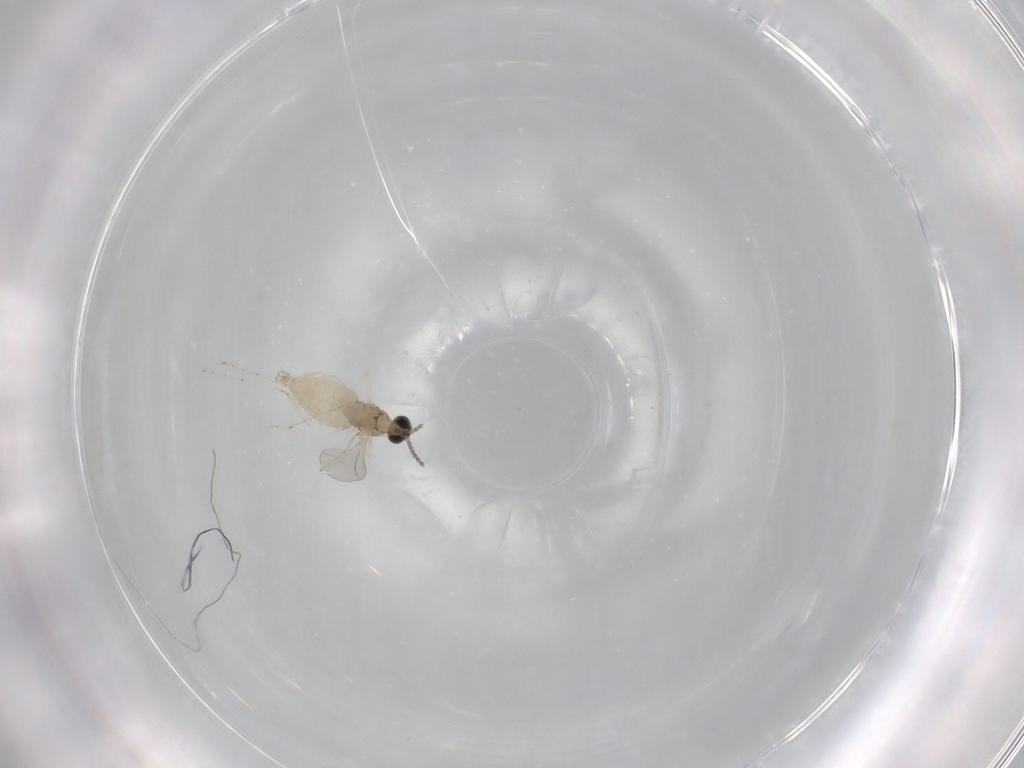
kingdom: Animalia
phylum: Arthropoda
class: Insecta
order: Diptera
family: Cecidomyiidae
